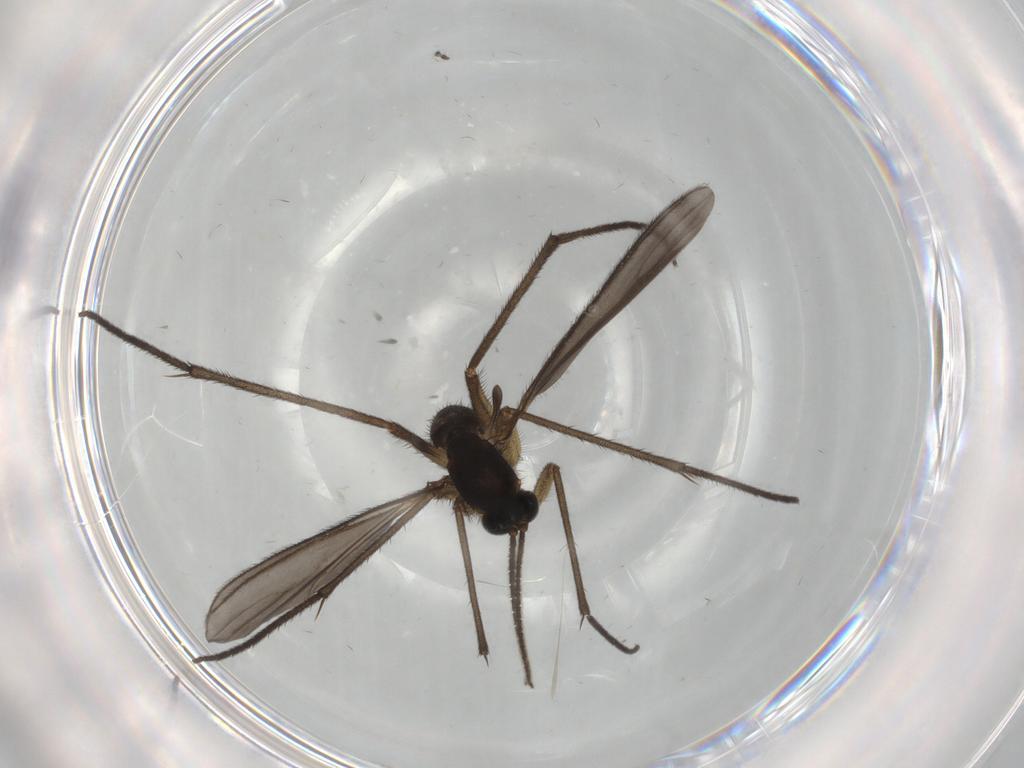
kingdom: Animalia
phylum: Arthropoda
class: Insecta
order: Diptera
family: Sciaridae
